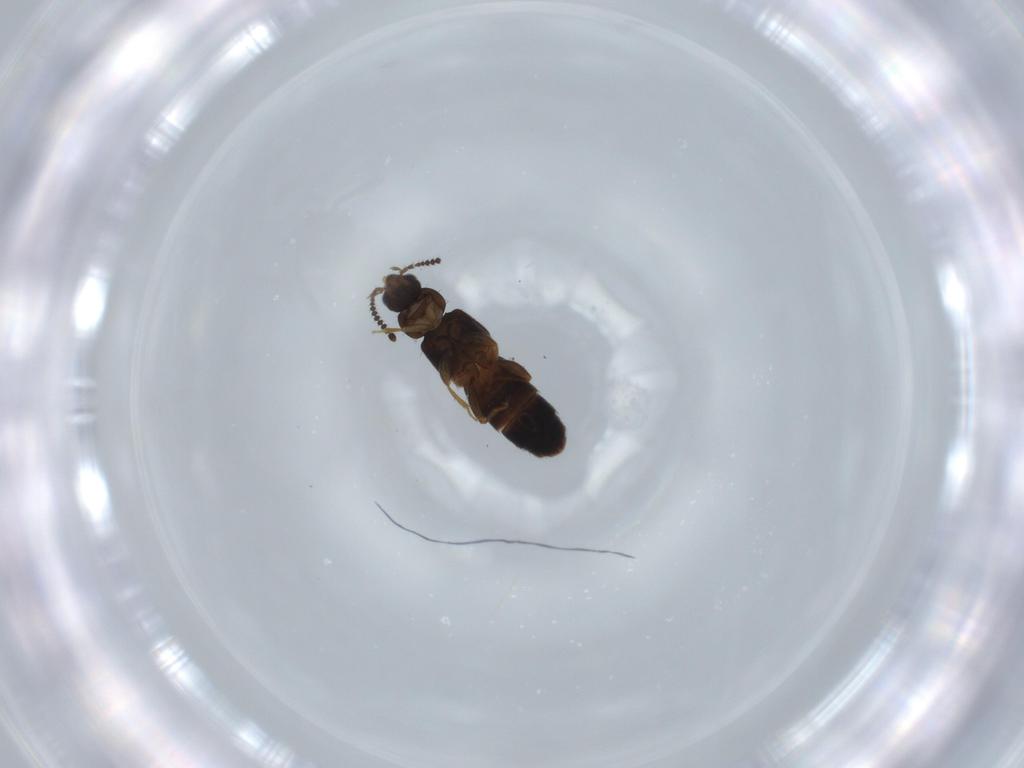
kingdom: Animalia
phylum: Arthropoda
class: Insecta
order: Coleoptera
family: Staphylinidae
